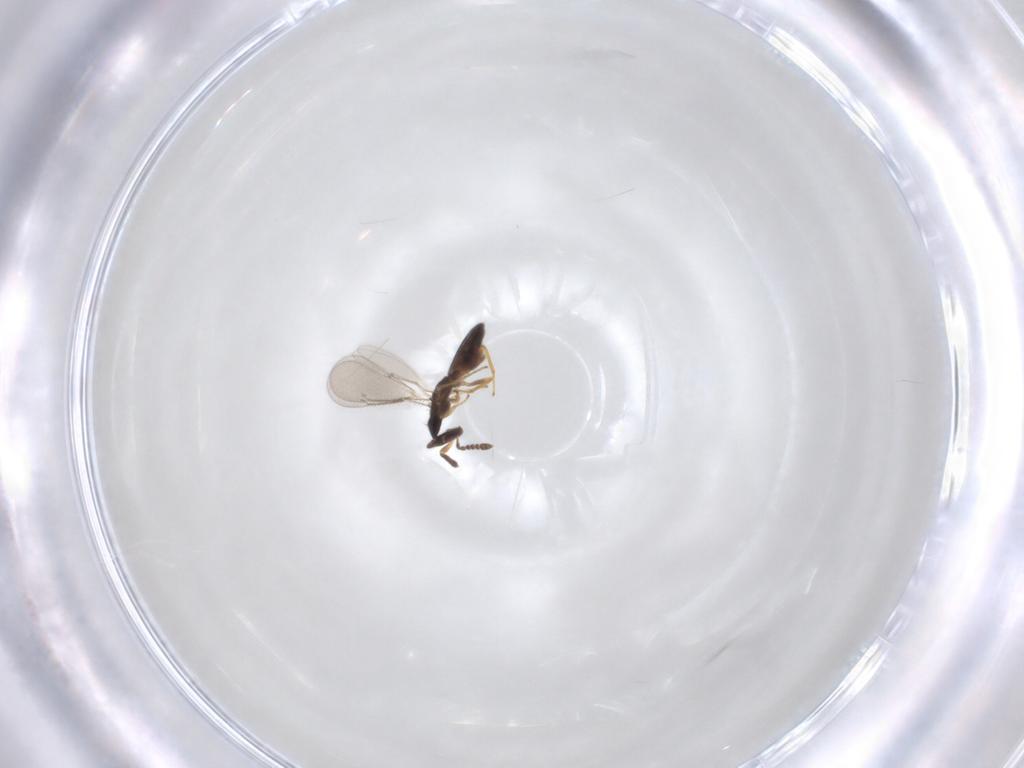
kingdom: Animalia
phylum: Arthropoda
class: Insecta
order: Hymenoptera
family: Eulophidae
